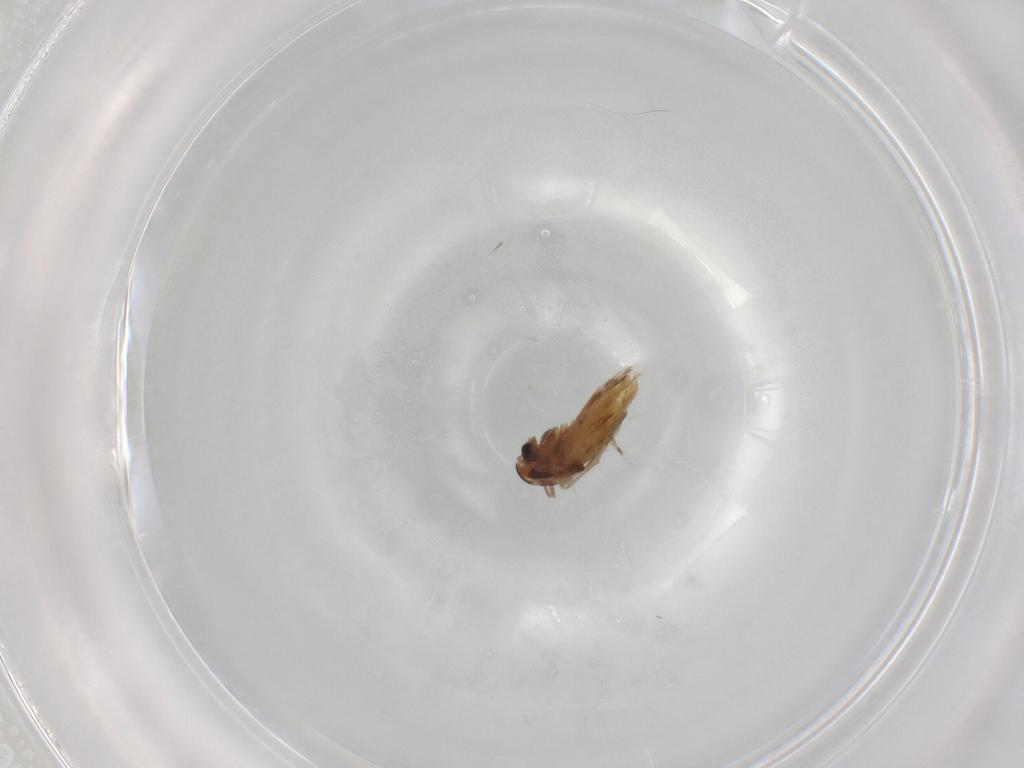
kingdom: Animalia
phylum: Arthropoda
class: Insecta
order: Diptera
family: Chironomidae
